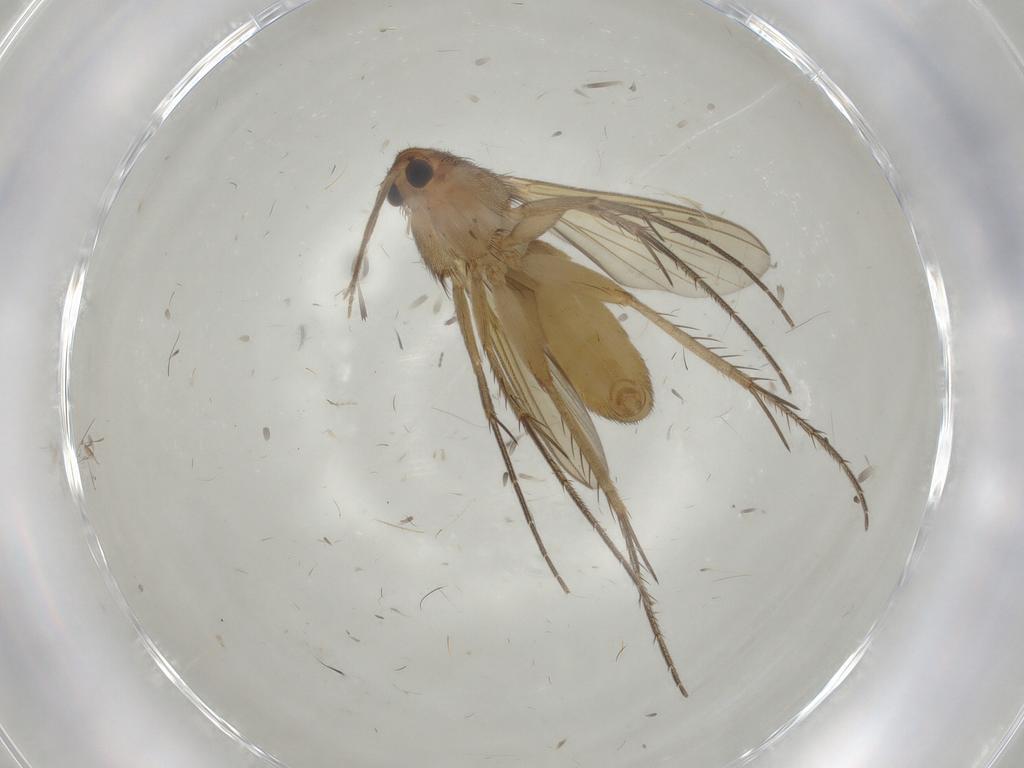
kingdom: Animalia
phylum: Arthropoda
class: Insecta
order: Diptera
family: Mycetophilidae
